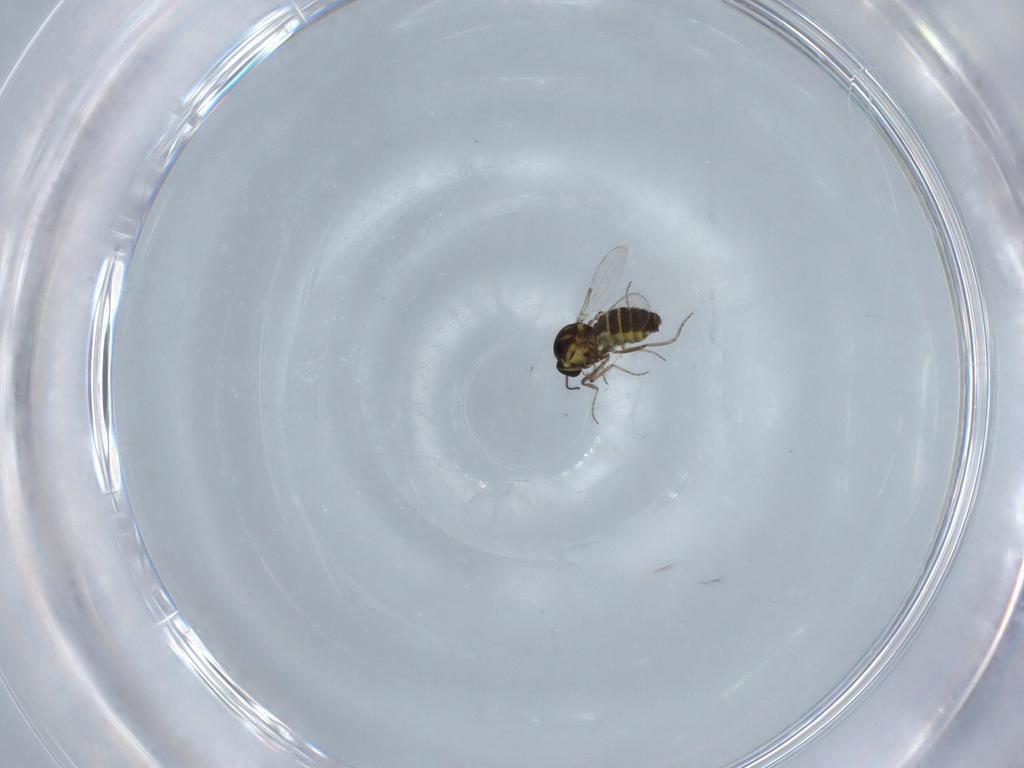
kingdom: Animalia
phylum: Arthropoda
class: Insecta
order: Diptera
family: Ceratopogonidae
